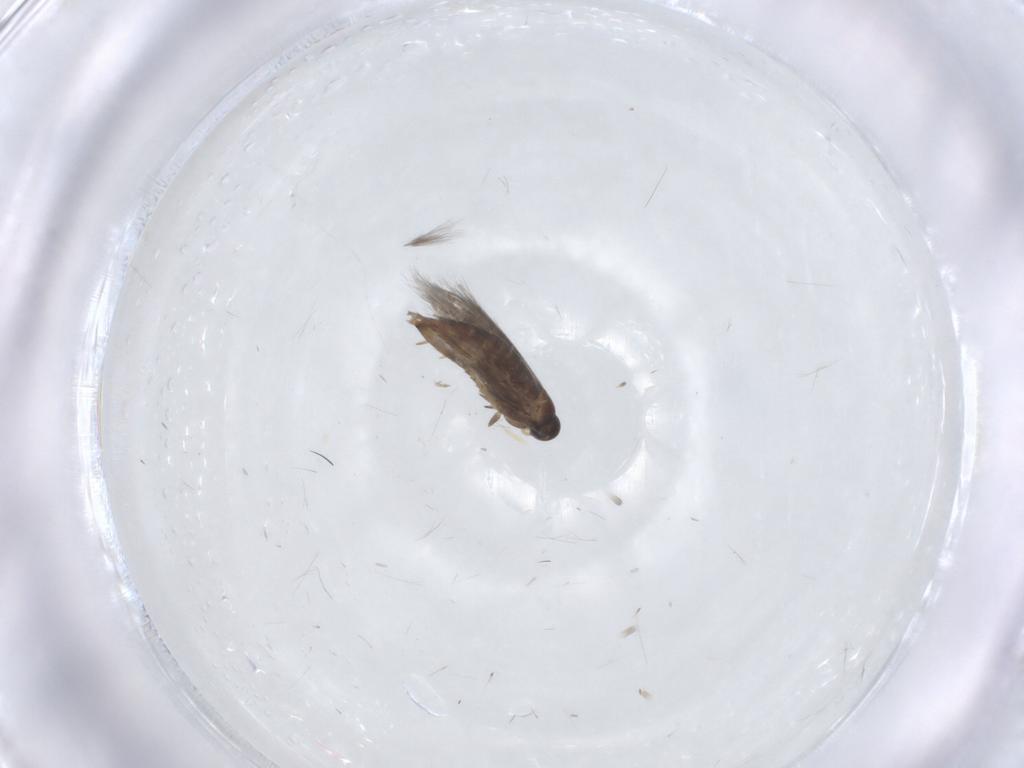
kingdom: Animalia
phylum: Arthropoda
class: Insecta
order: Lepidoptera
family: Heliozelidae
